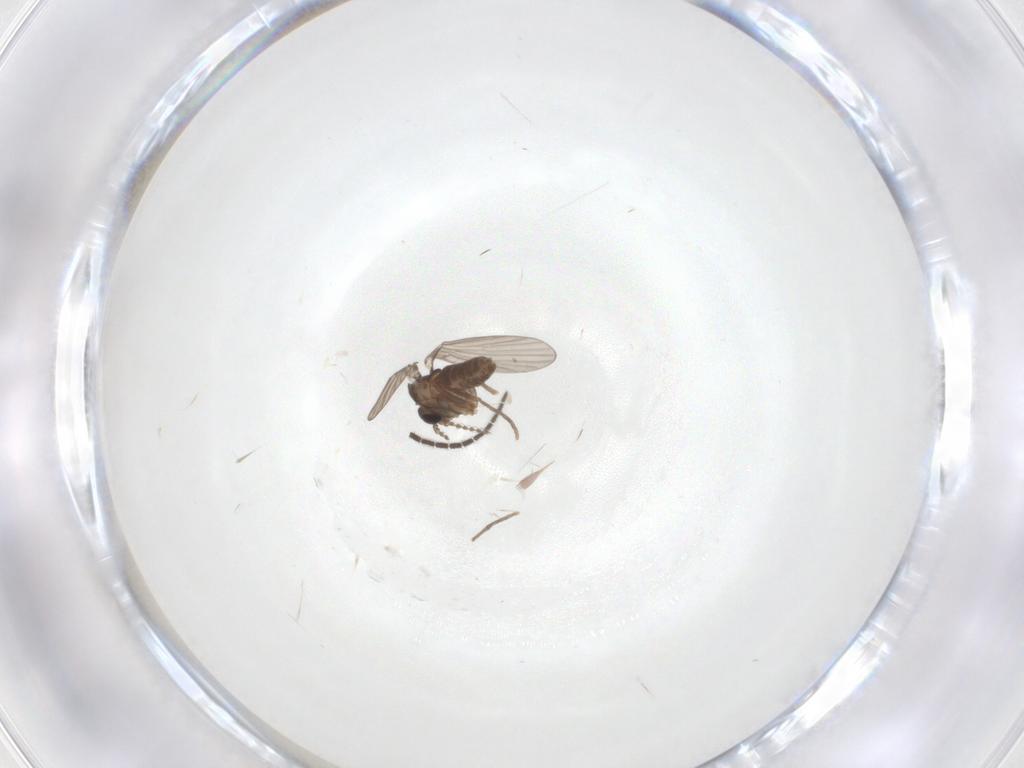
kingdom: Animalia
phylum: Arthropoda
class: Insecta
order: Diptera
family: Sciaridae
